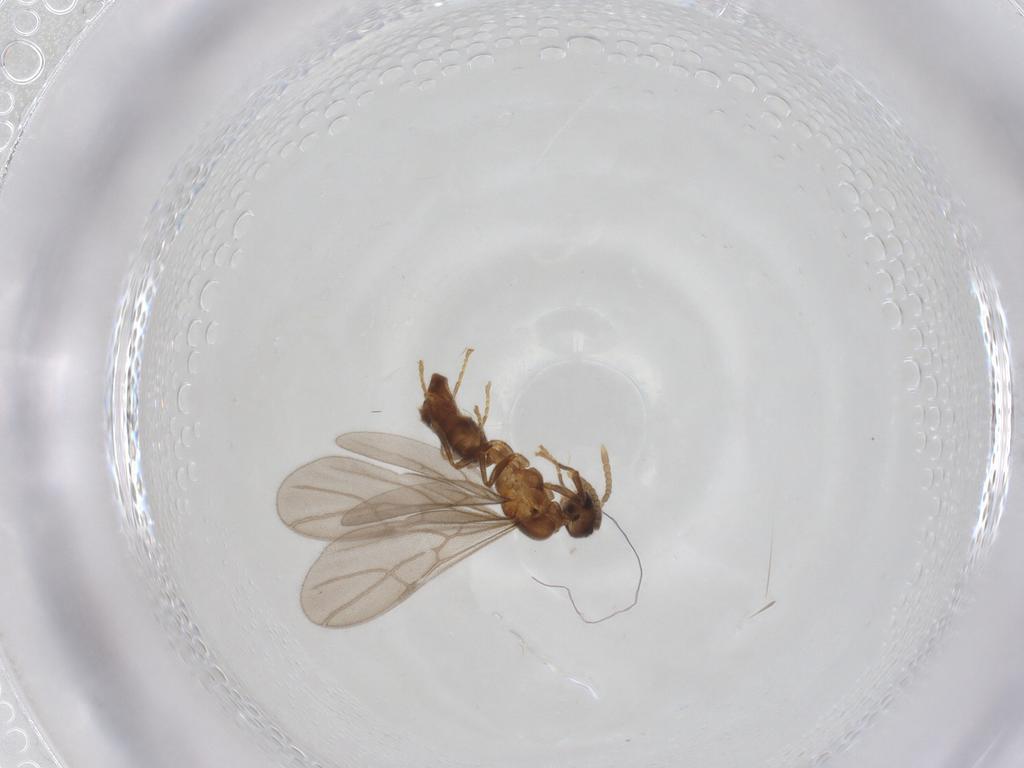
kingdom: Animalia
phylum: Arthropoda
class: Insecta
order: Hymenoptera
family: Formicidae
